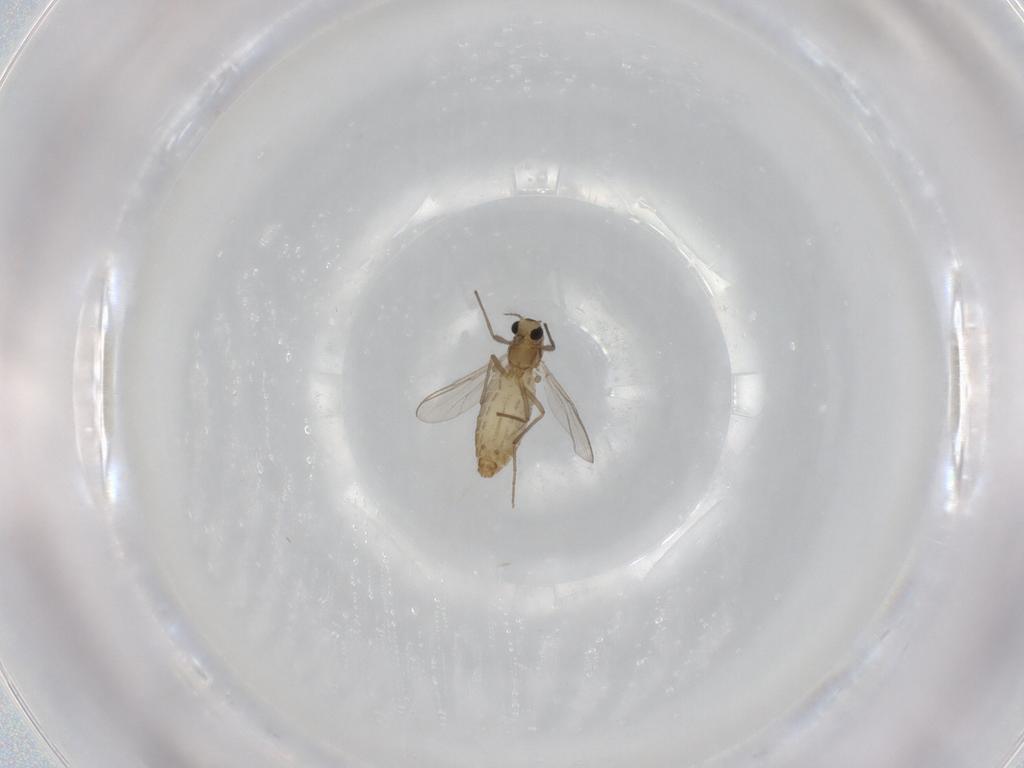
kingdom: Animalia
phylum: Arthropoda
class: Insecta
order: Diptera
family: Chironomidae
